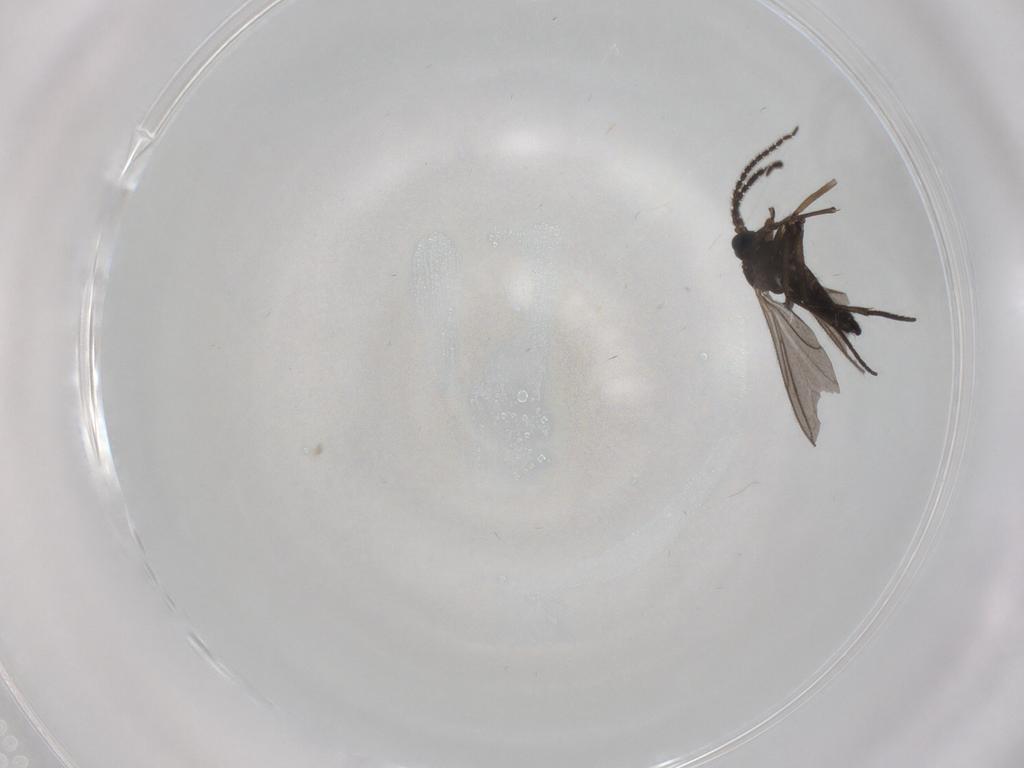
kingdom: Animalia
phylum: Arthropoda
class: Insecta
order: Diptera
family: Sciaridae
